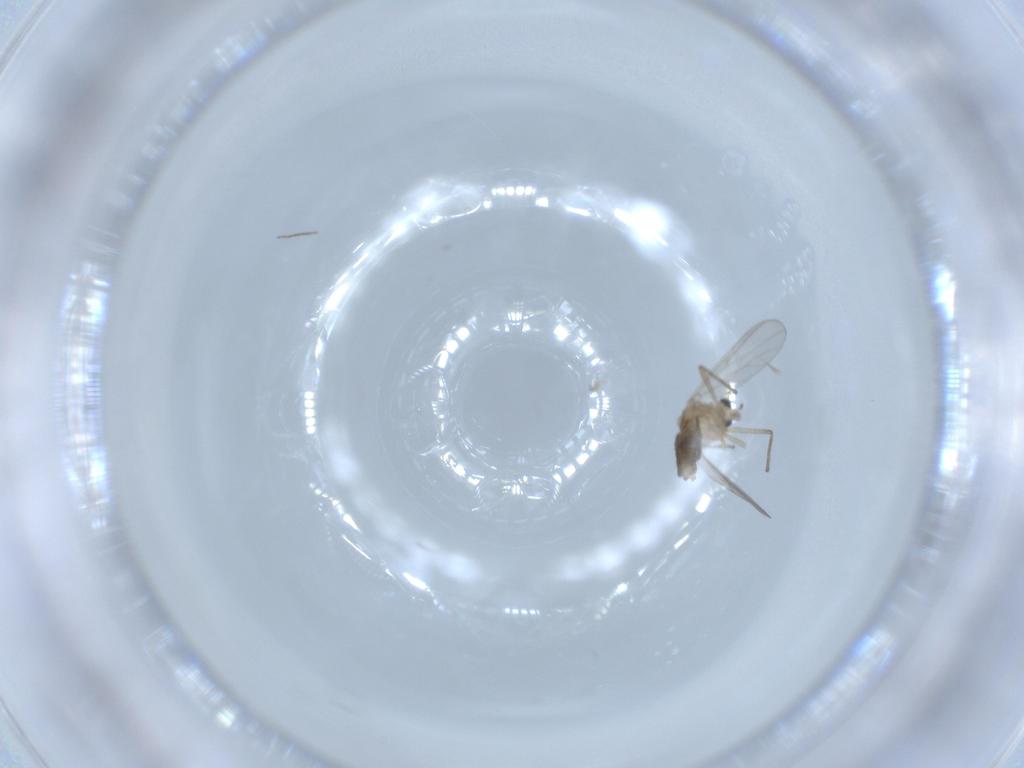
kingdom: Animalia
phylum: Arthropoda
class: Insecta
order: Diptera
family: Chironomidae
